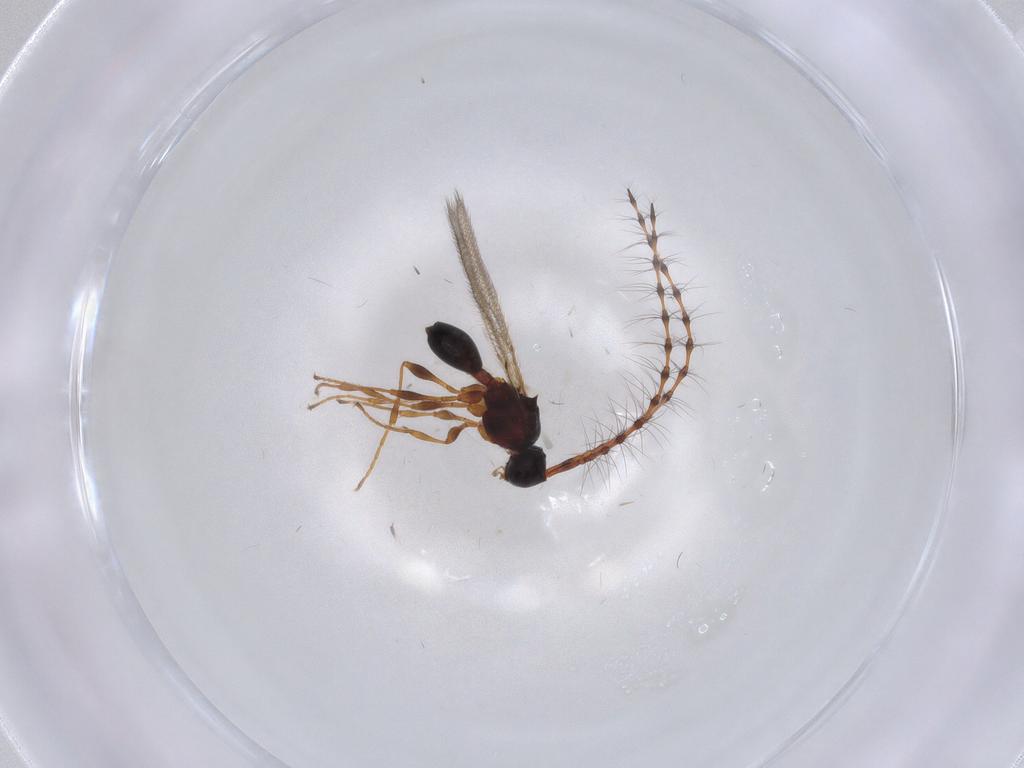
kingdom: Animalia
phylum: Arthropoda
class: Insecta
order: Hymenoptera
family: Diapriidae
